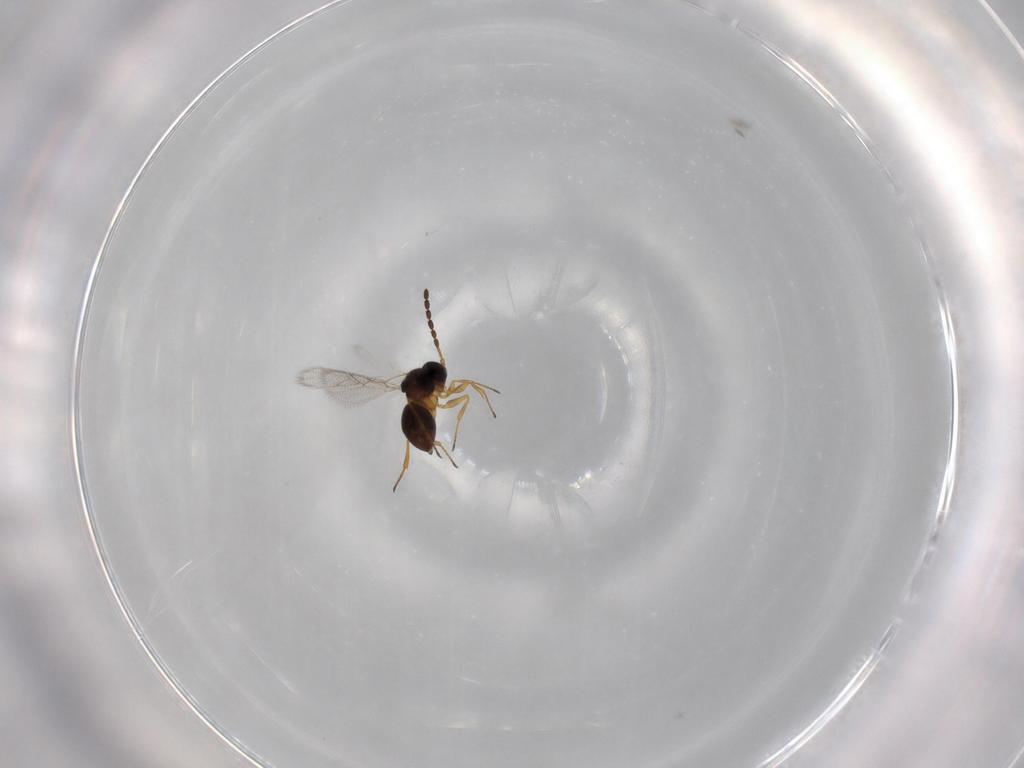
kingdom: Animalia
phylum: Arthropoda
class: Insecta
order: Hymenoptera
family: Figitidae
